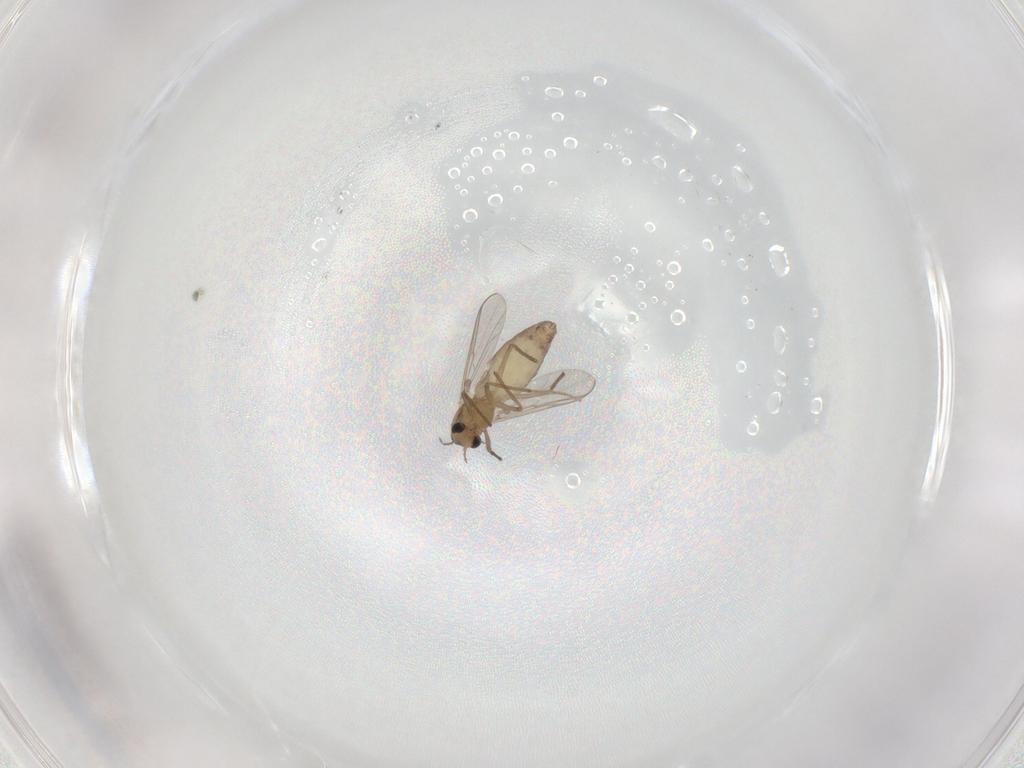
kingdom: Animalia
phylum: Arthropoda
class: Insecta
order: Diptera
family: Chironomidae
